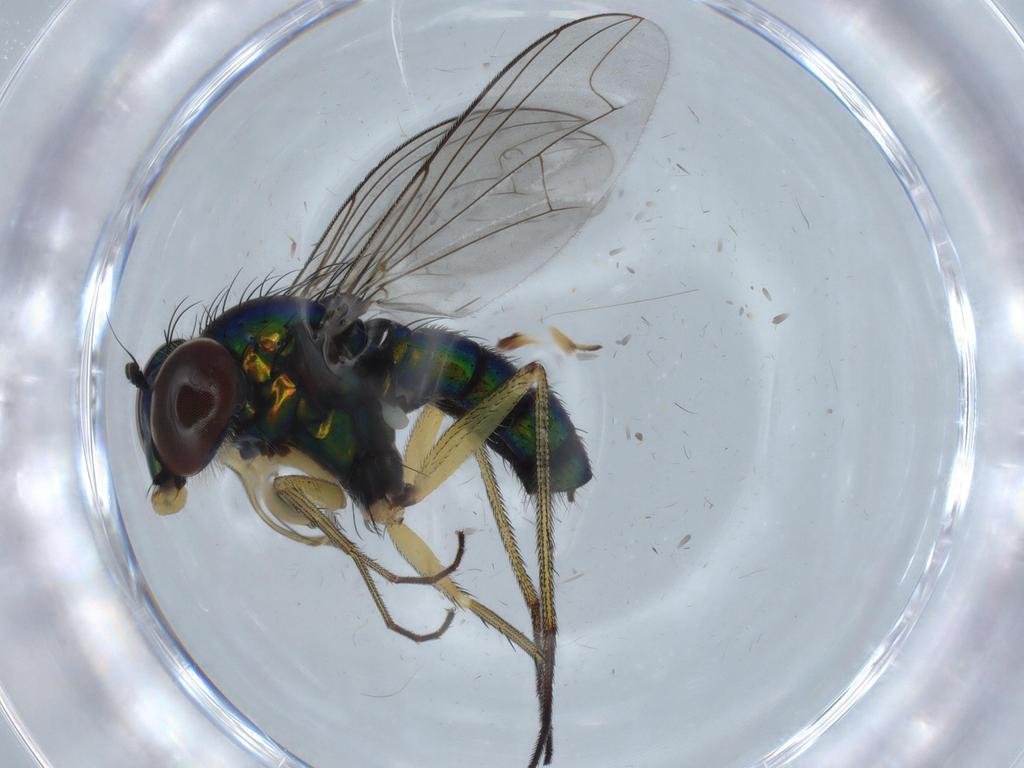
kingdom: Animalia
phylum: Arthropoda
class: Insecta
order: Diptera
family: Dolichopodidae
